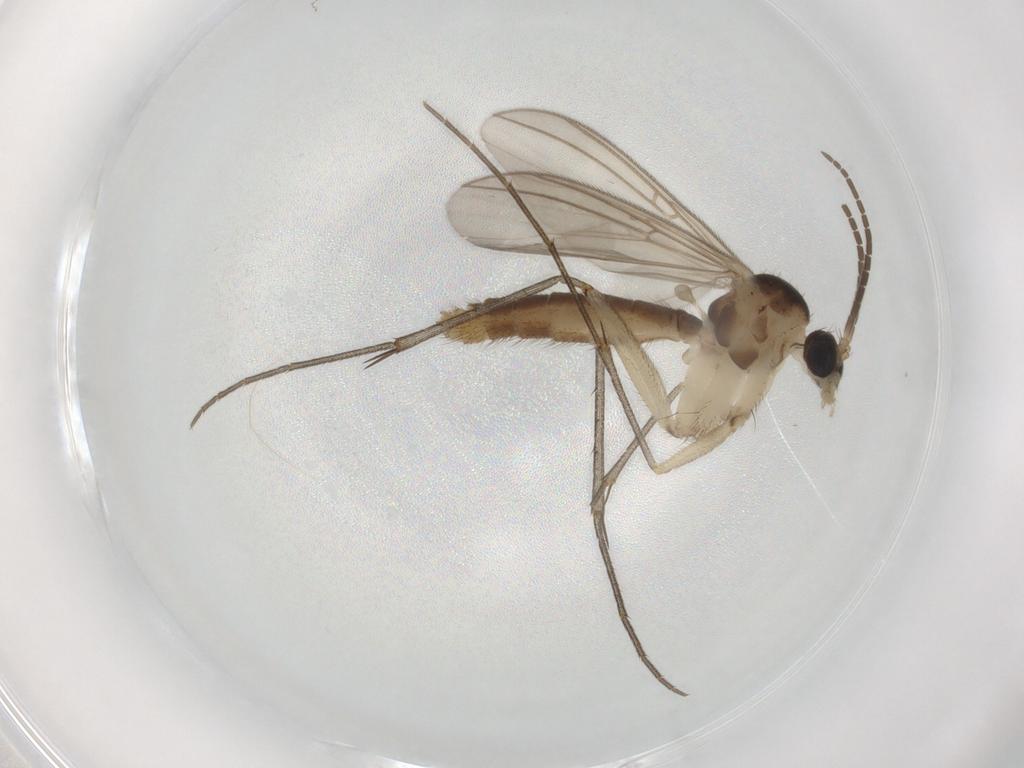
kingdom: Animalia
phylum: Arthropoda
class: Insecta
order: Diptera
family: Mycetophilidae
